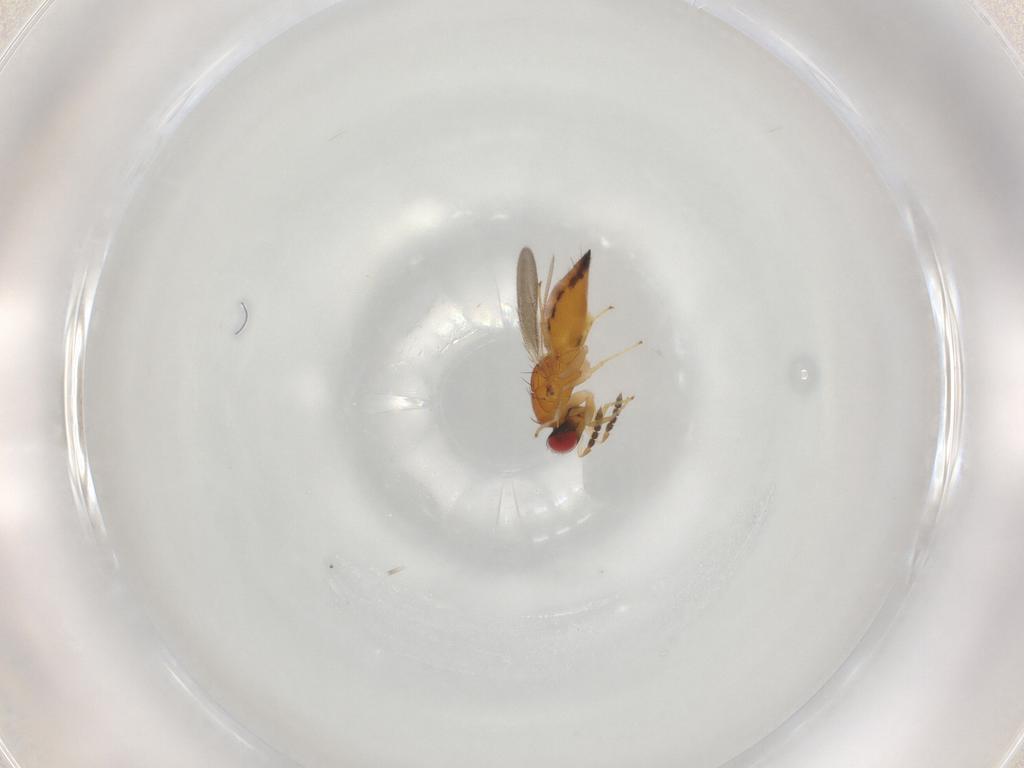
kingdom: Animalia
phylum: Arthropoda
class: Insecta
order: Hymenoptera
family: Eulophidae
